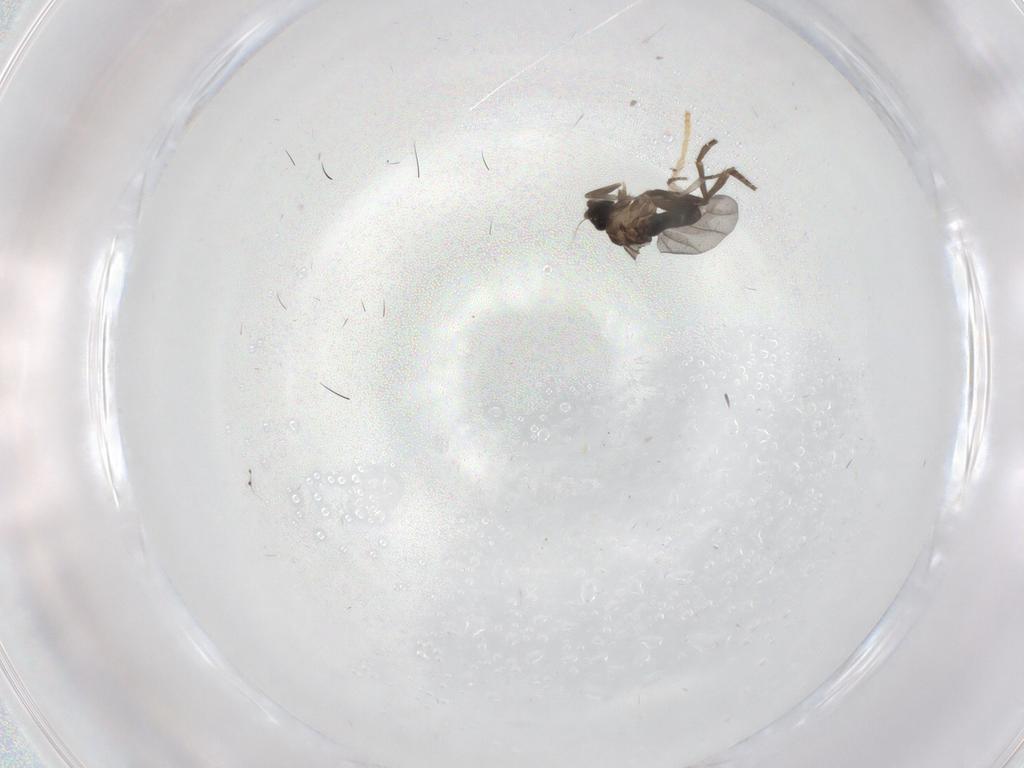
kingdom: Animalia
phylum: Arthropoda
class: Insecta
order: Diptera
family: Psychodidae
